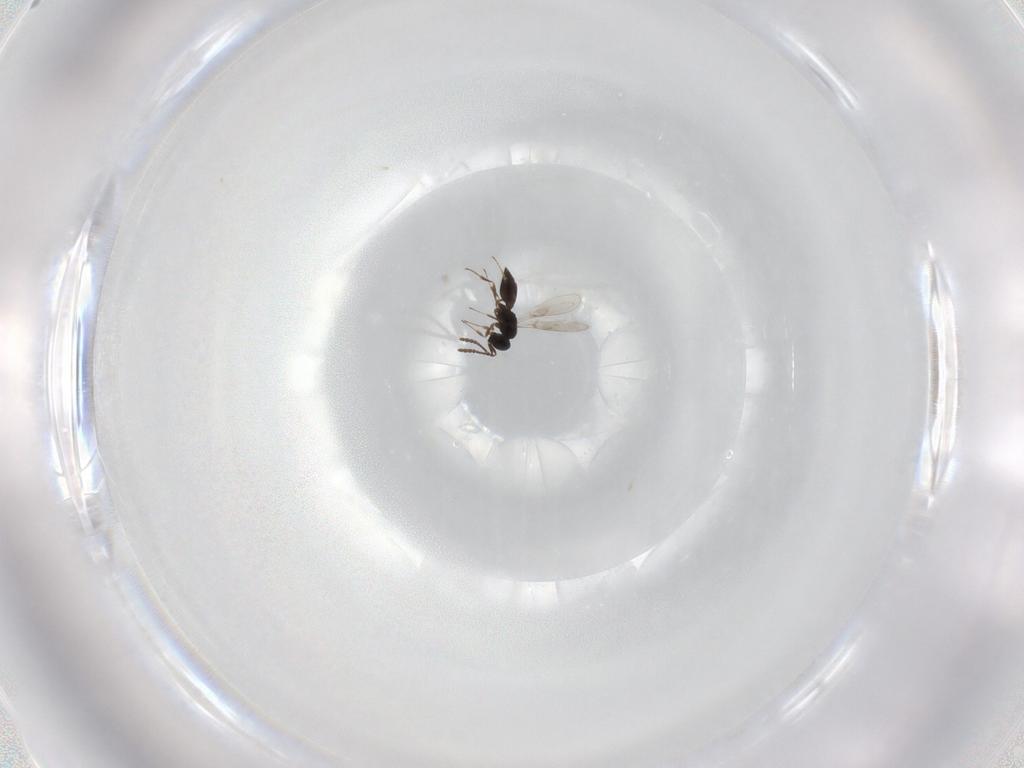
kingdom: Animalia
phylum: Arthropoda
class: Insecta
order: Hymenoptera
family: Scelionidae
